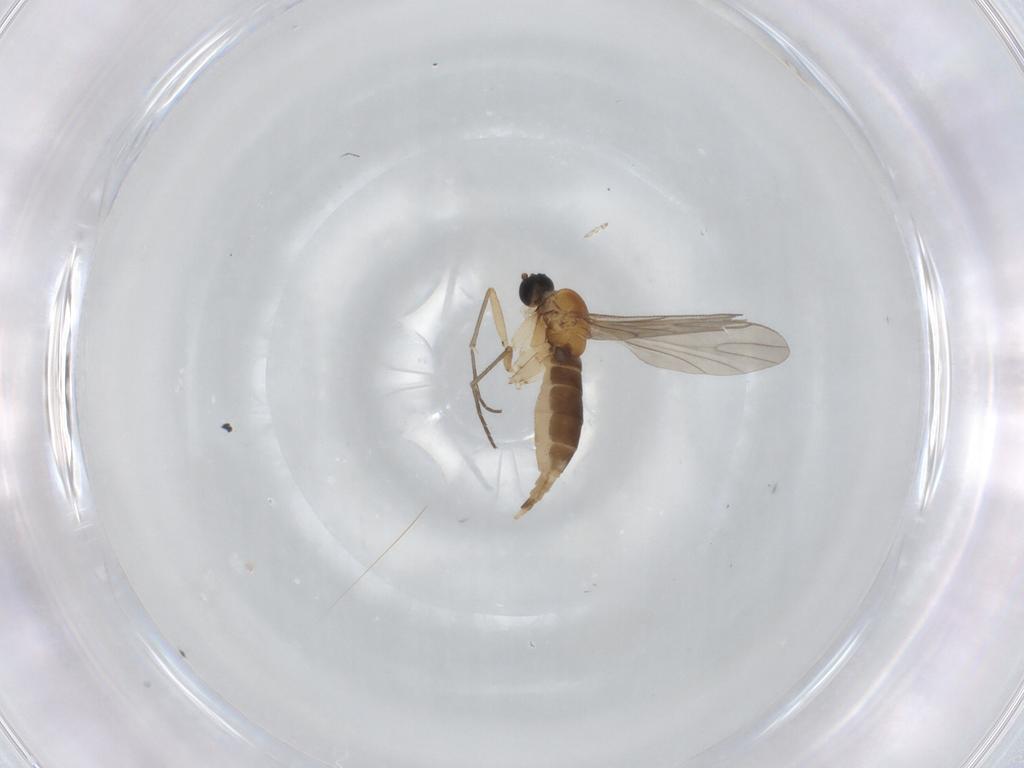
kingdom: Animalia
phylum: Arthropoda
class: Insecta
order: Diptera
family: Sciaridae
